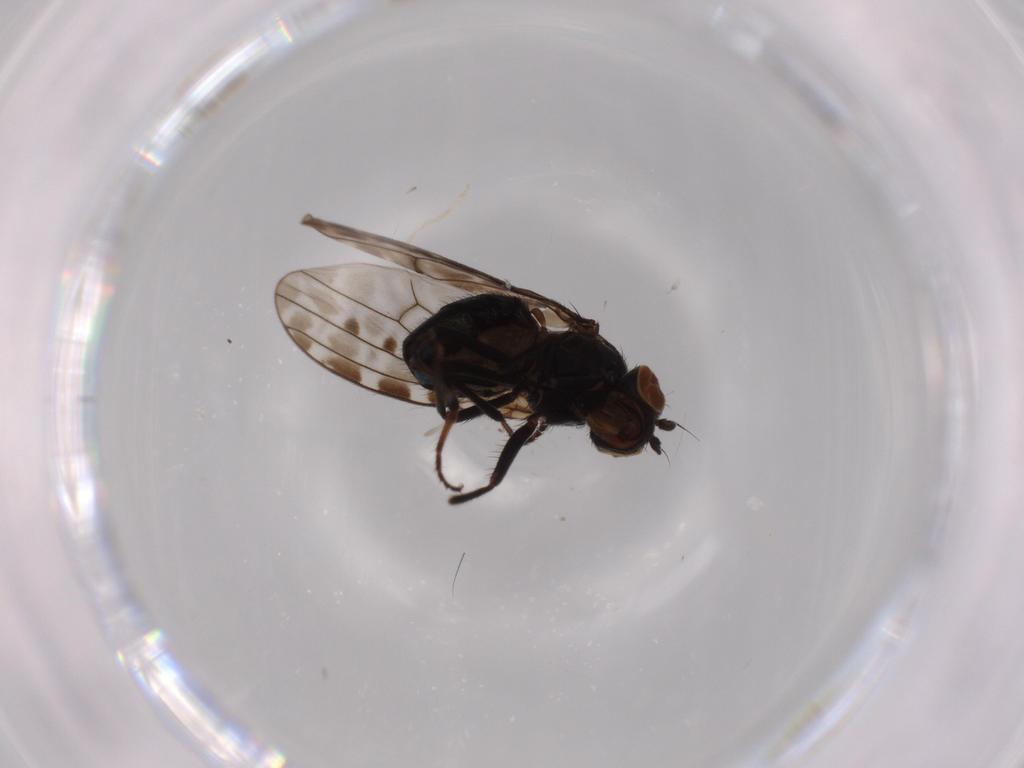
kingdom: Animalia
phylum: Arthropoda
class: Insecta
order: Diptera
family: Ephydridae
